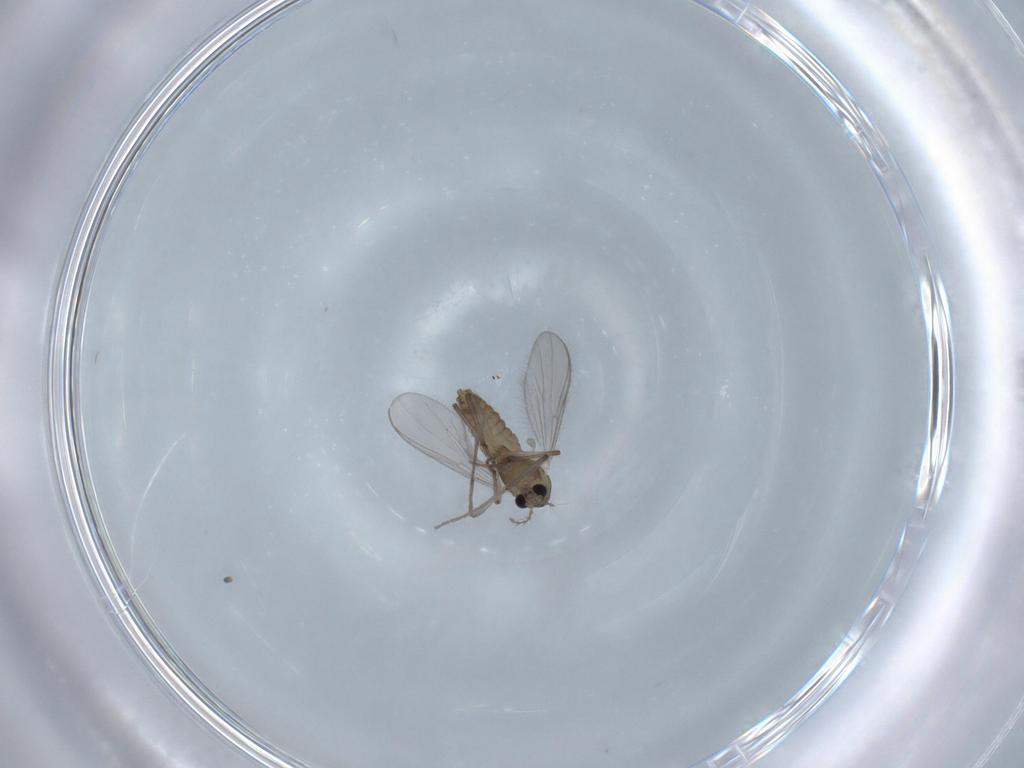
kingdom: Animalia
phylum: Arthropoda
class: Insecta
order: Diptera
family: Chironomidae
